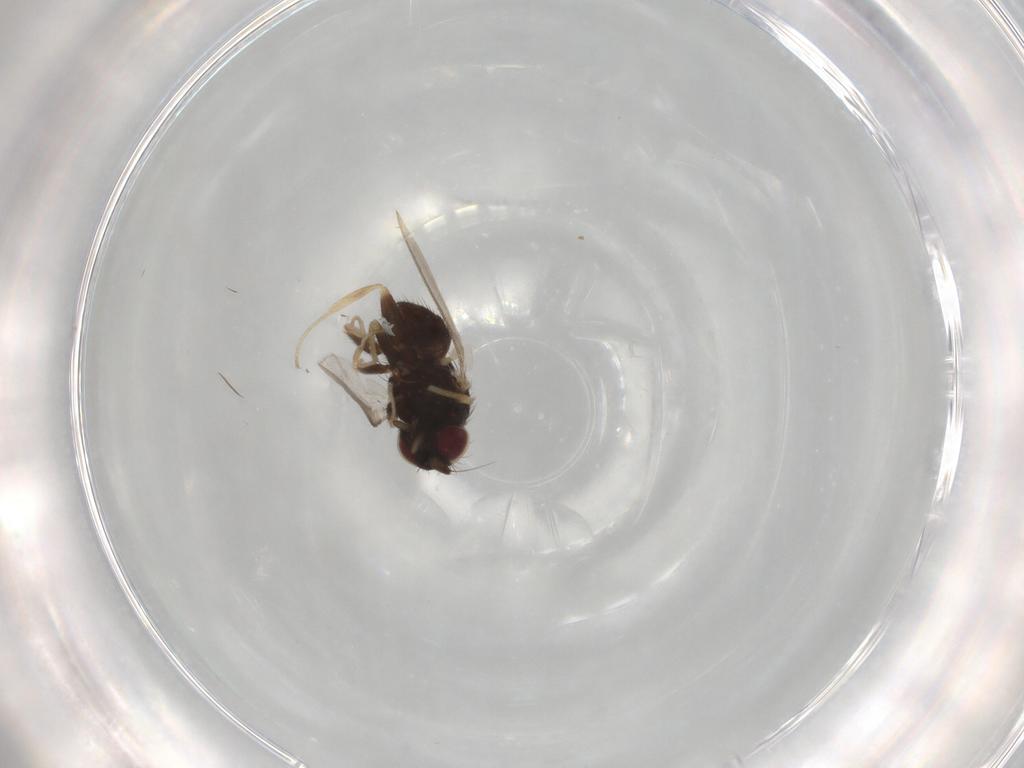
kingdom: Animalia
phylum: Arthropoda
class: Insecta
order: Diptera
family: Milichiidae
